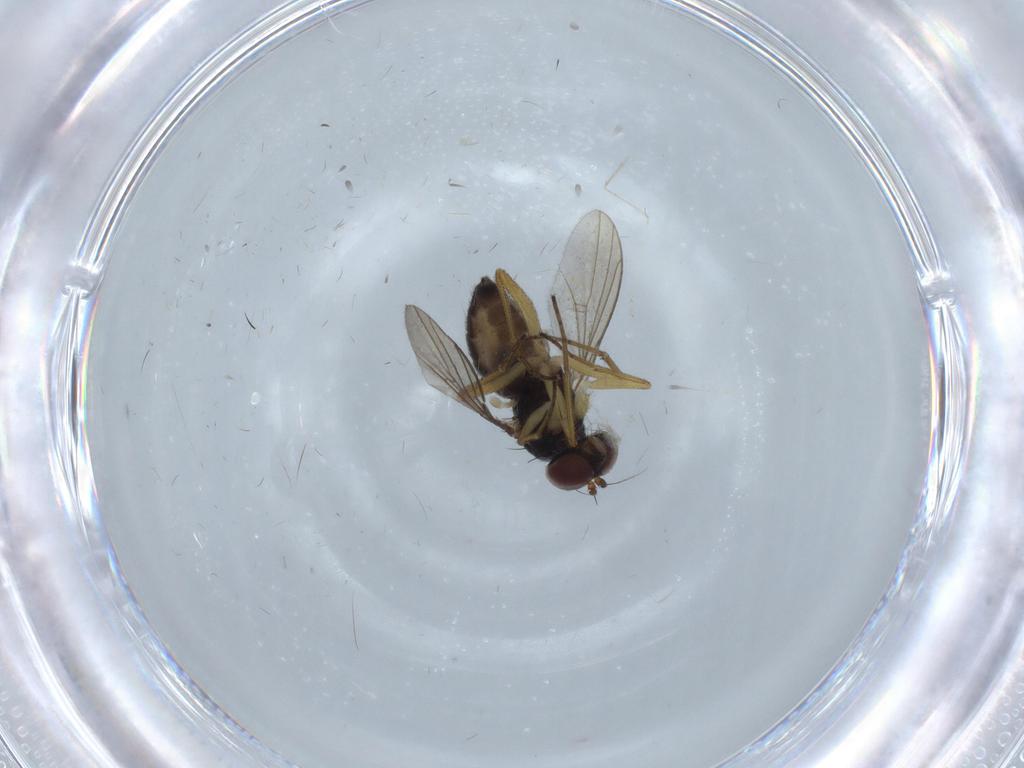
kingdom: Animalia
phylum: Arthropoda
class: Insecta
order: Diptera
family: Dolichopodidae
